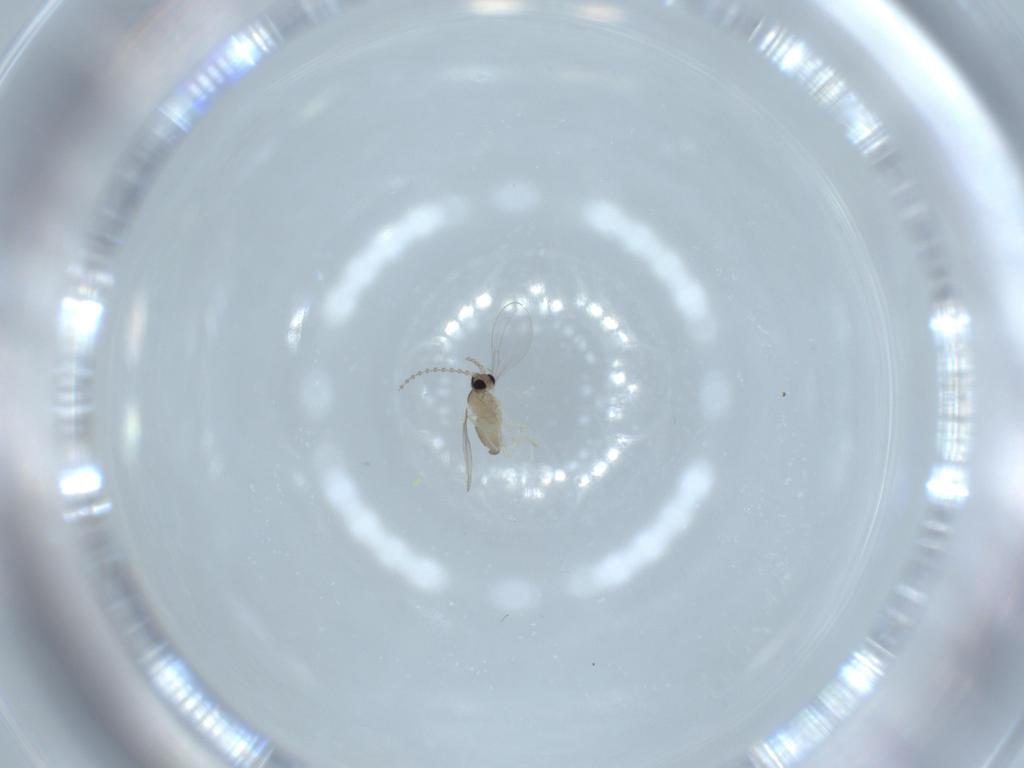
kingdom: Animalia
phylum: Arthropoda
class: Insecta
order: Diptera
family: Cecidomyiidae
